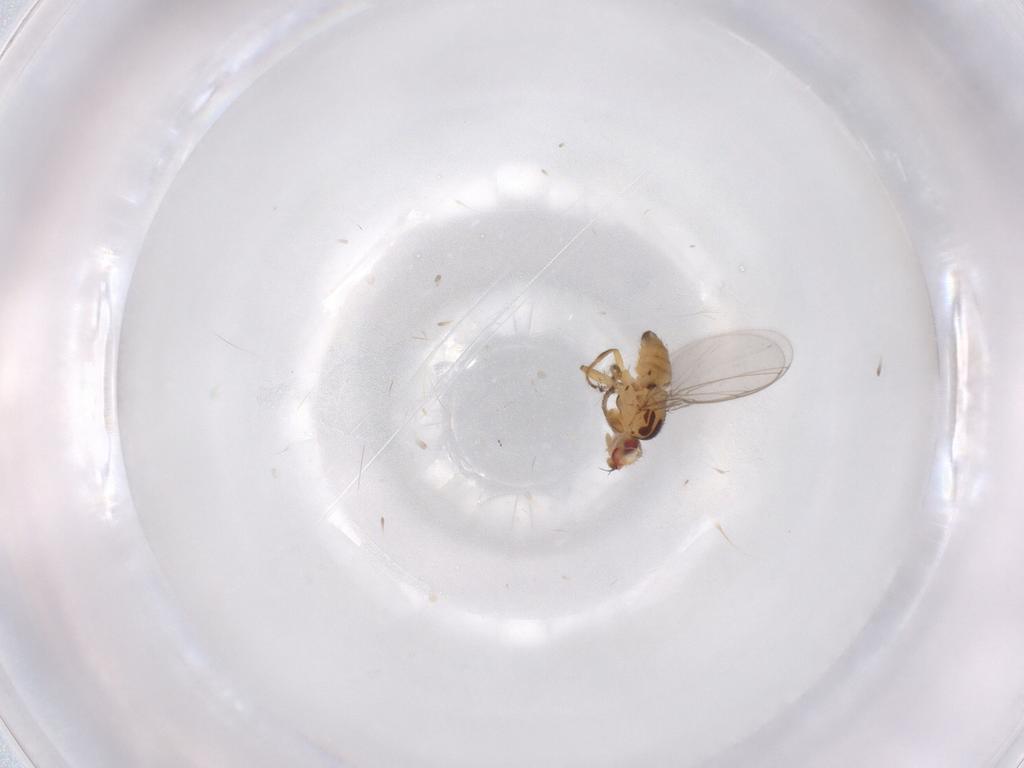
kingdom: Animalia
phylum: Arthropoda
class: Insecta
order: Diptera
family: Chloropidae
